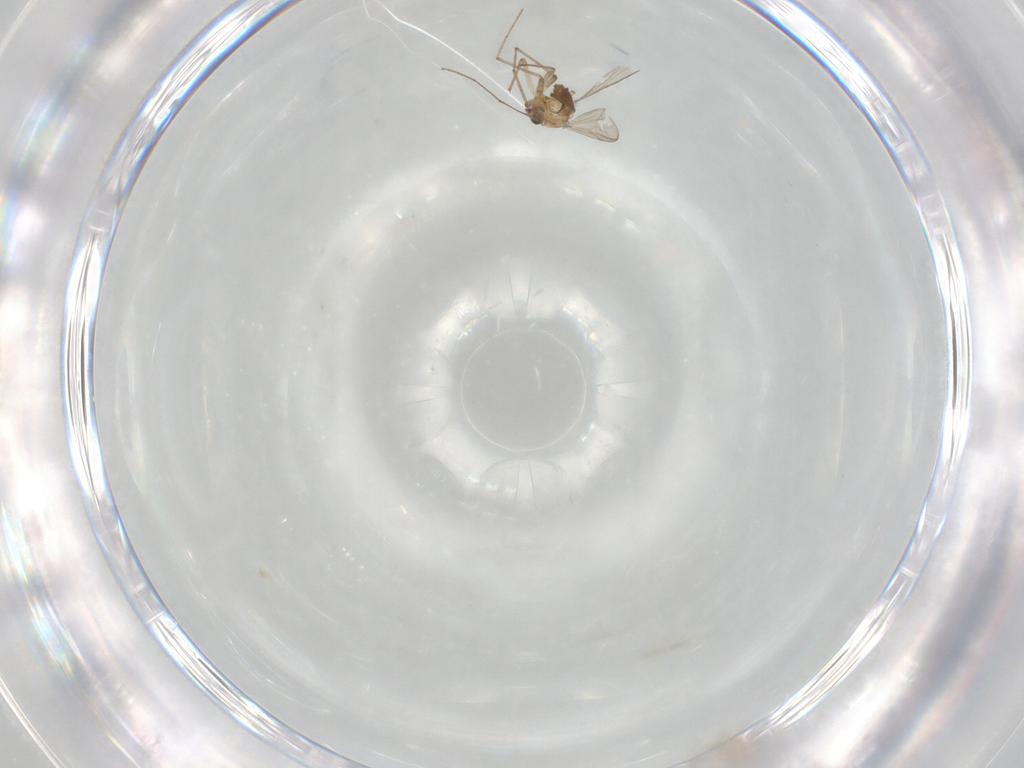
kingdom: Animalia
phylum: Arthropoda
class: Insecta
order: Diptera
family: Chironomidae
